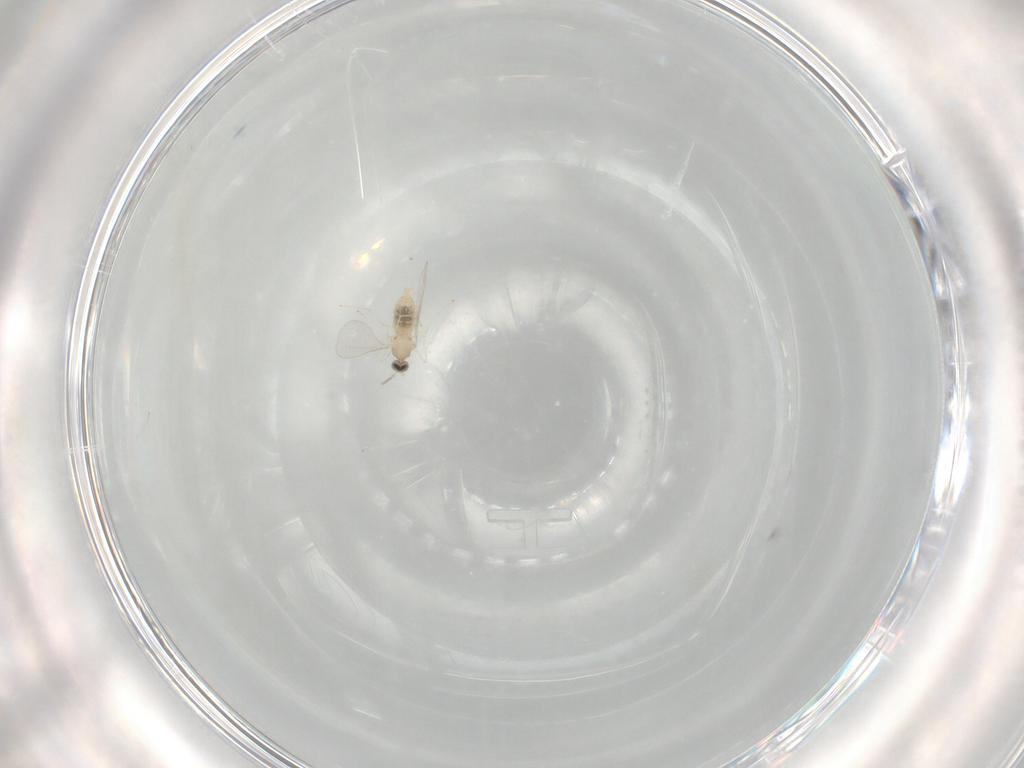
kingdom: Animalia
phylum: Arthropoda
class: Insecta
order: Diptera
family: Cecidomyiidae
